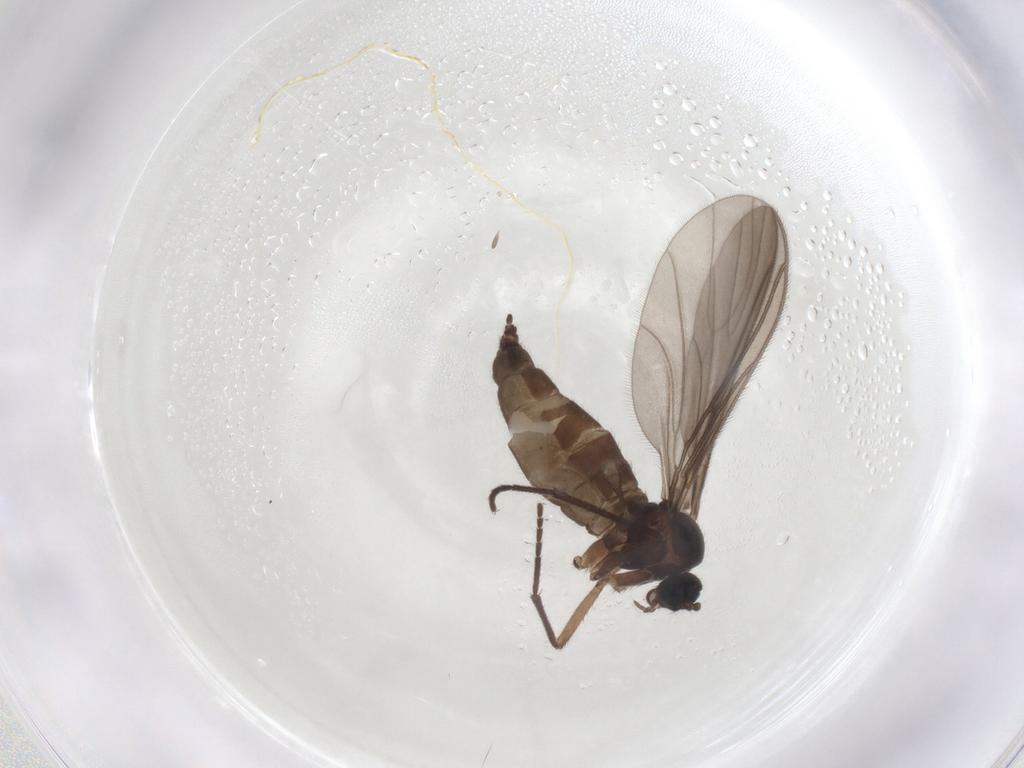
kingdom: Animalia
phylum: Arthropoda
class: Insecta
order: Diptera
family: Sciaridae
